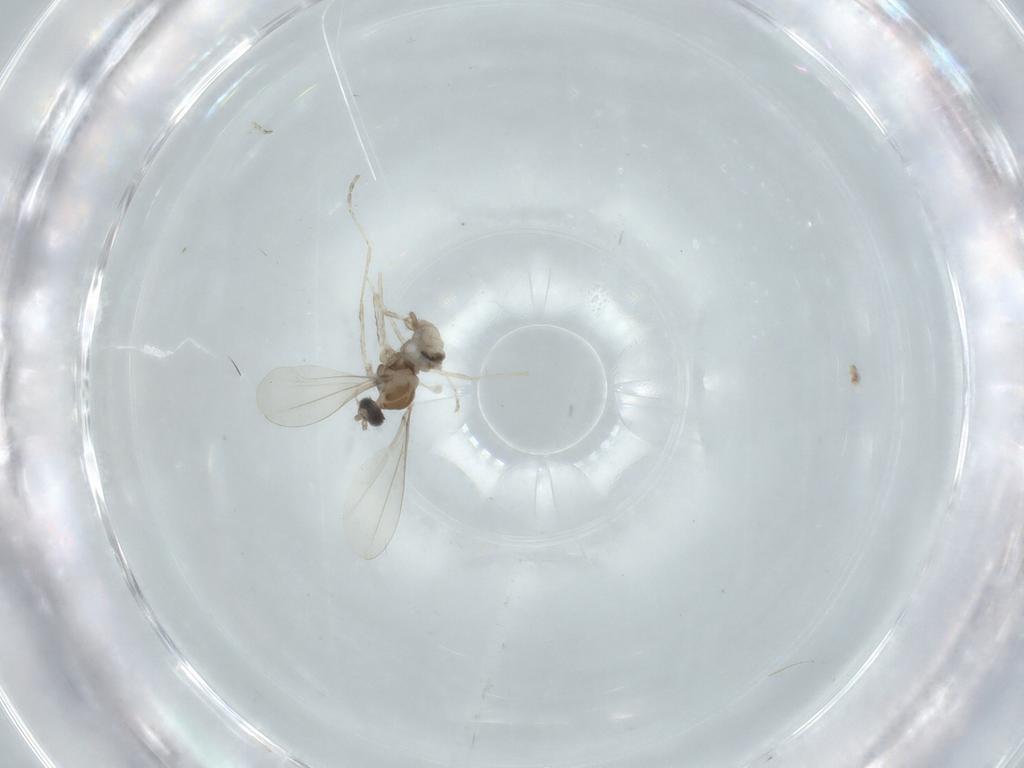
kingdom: Animalia
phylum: Arthropoda
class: Insecta
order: Diptera
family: Cecidomyiidae
